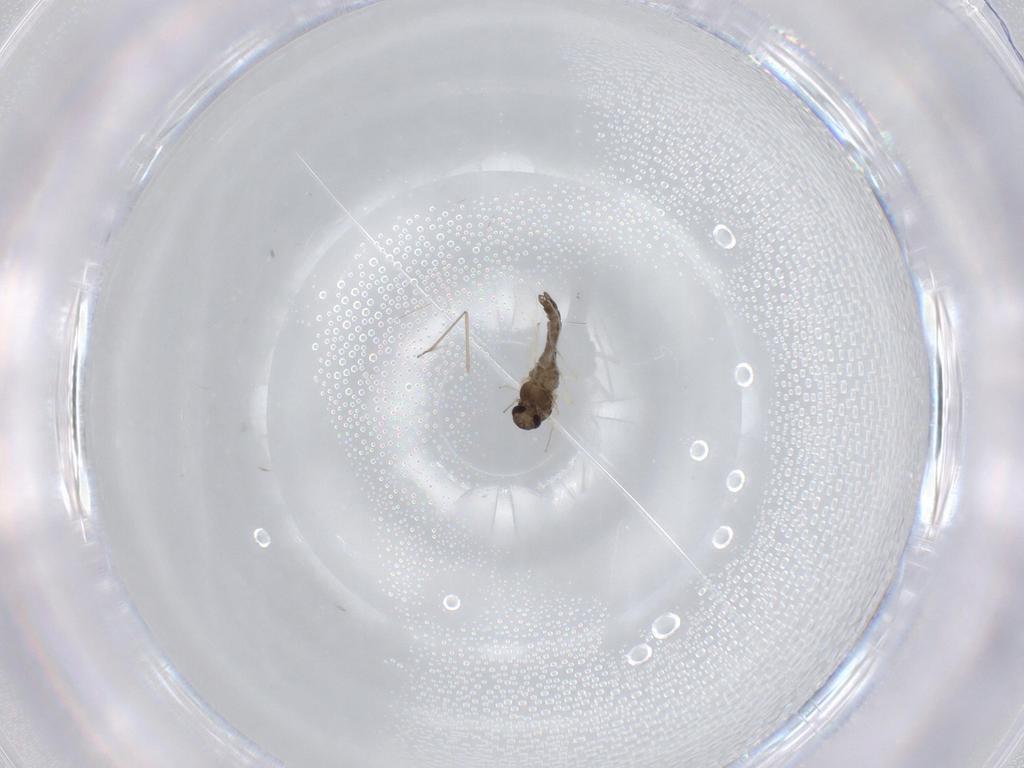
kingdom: Animalia
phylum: Arthropoda
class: Insecta
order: Diptera
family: Chironomidae
